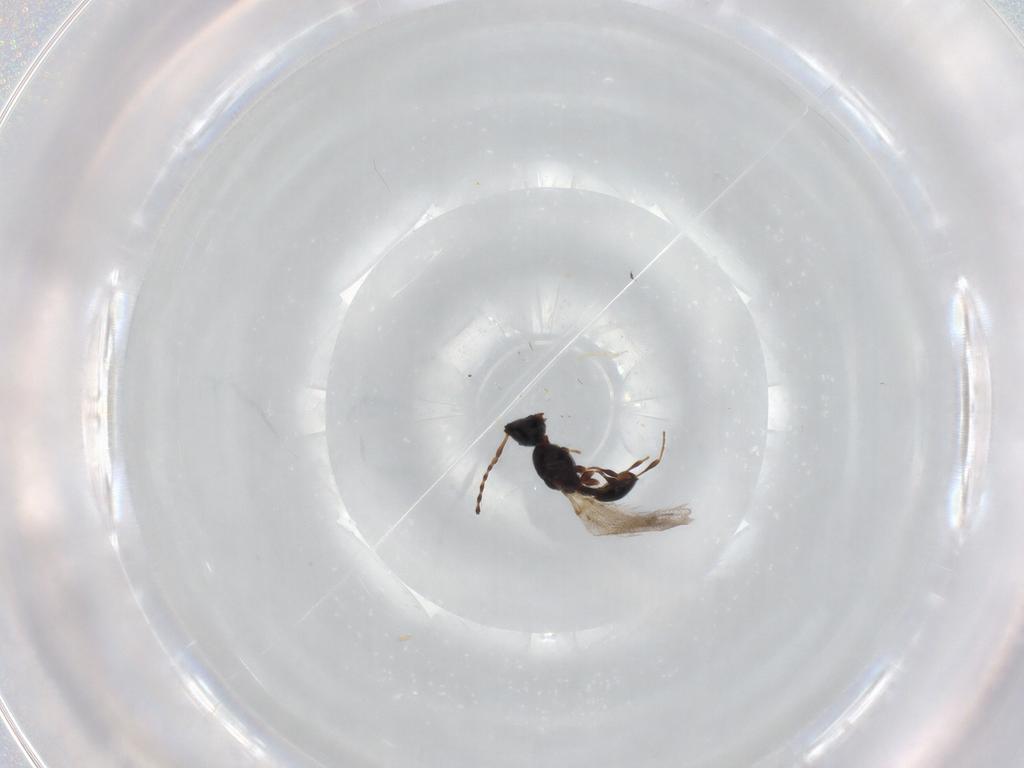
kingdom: Animalia
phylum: Arthropoda
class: Insecta
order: Hymenoptera
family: Diapriidae
